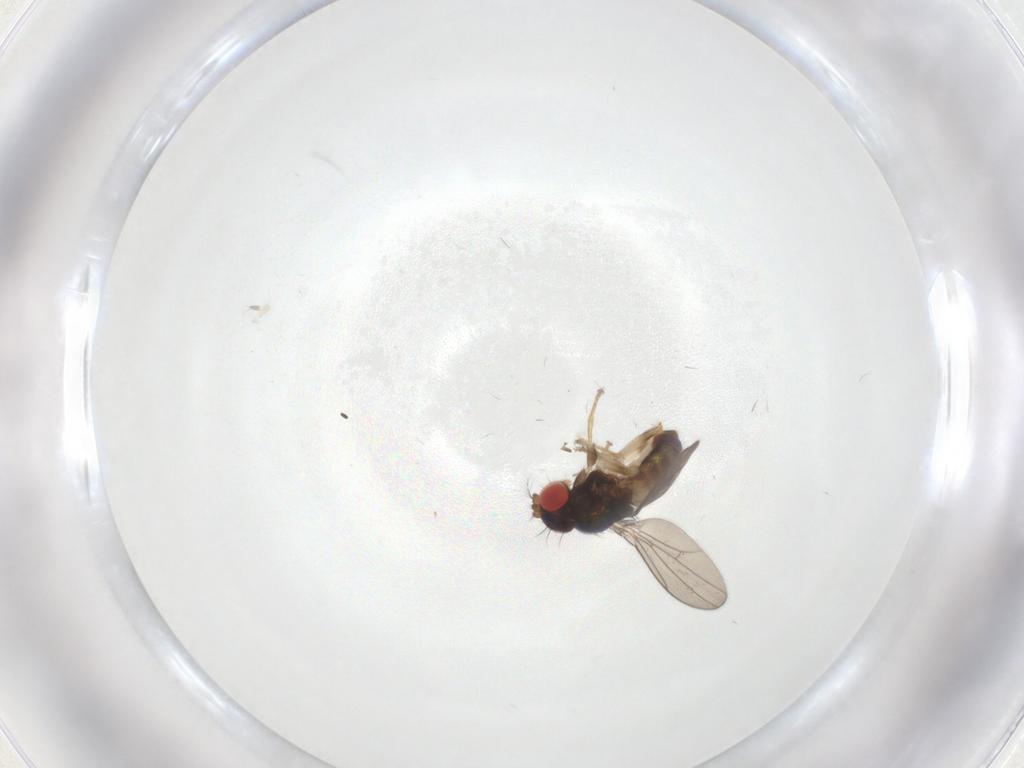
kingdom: Animalia
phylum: Arthropoda
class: Insecta
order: Diptera
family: Drosophilidae
